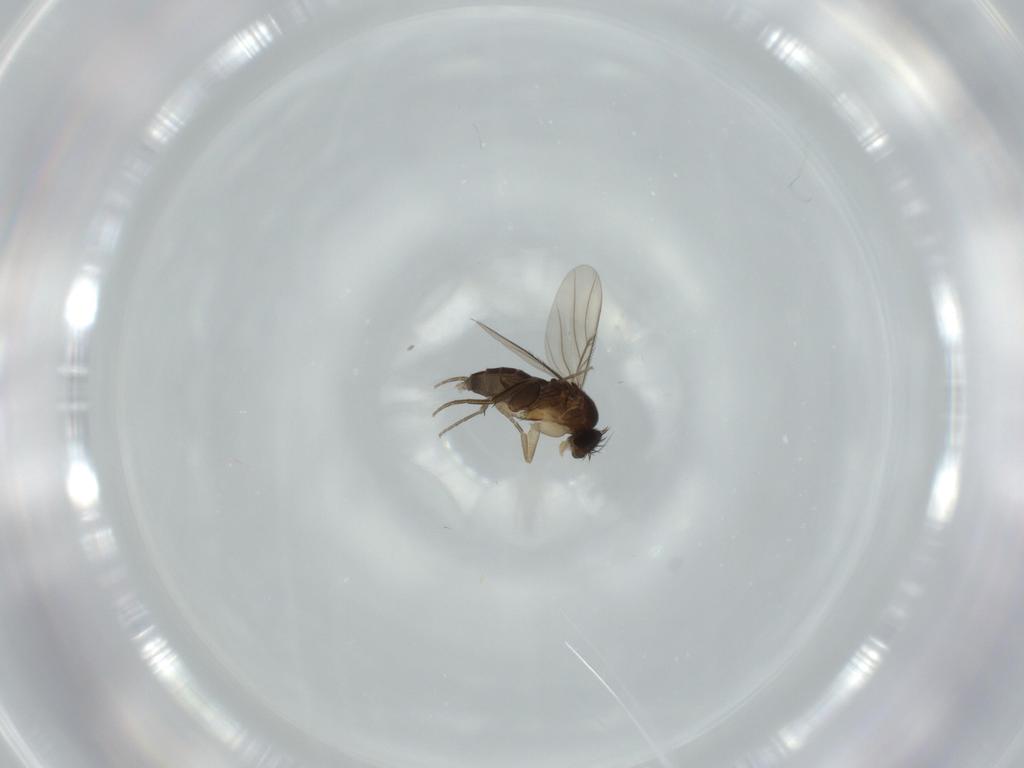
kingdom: Animalia
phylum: Arthropoda
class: Insecta
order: Diptera
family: Phoridae
